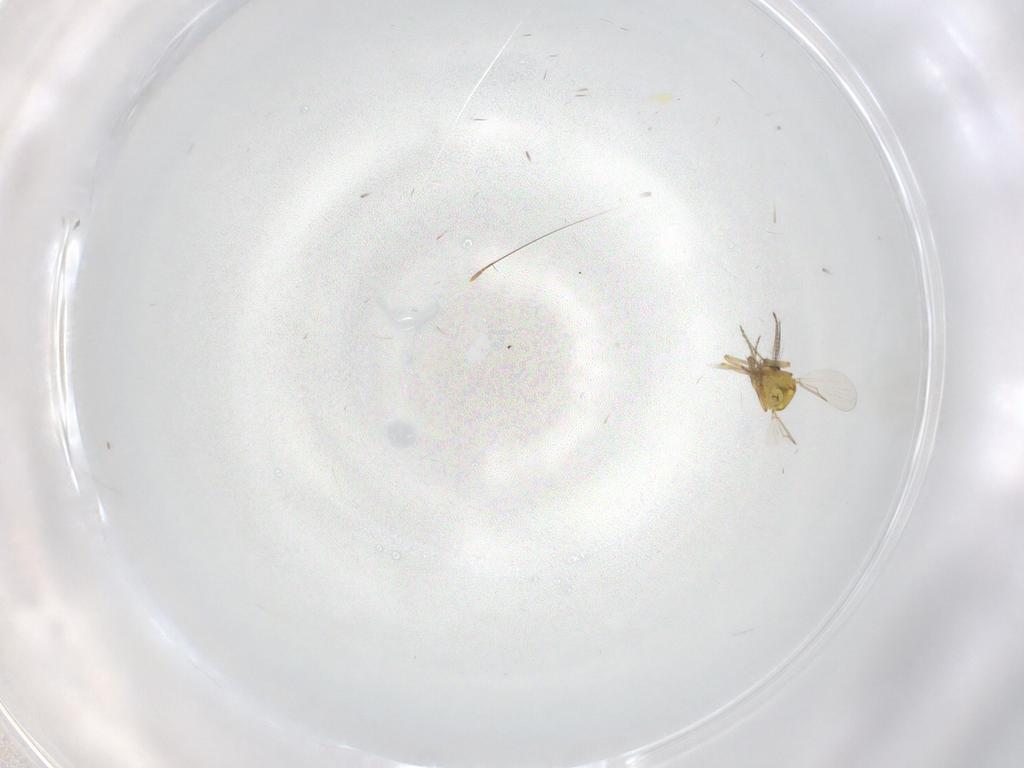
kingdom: Animalia
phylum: Arthropoda
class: Insecta
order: Diptera
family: Ceratopogonidae
